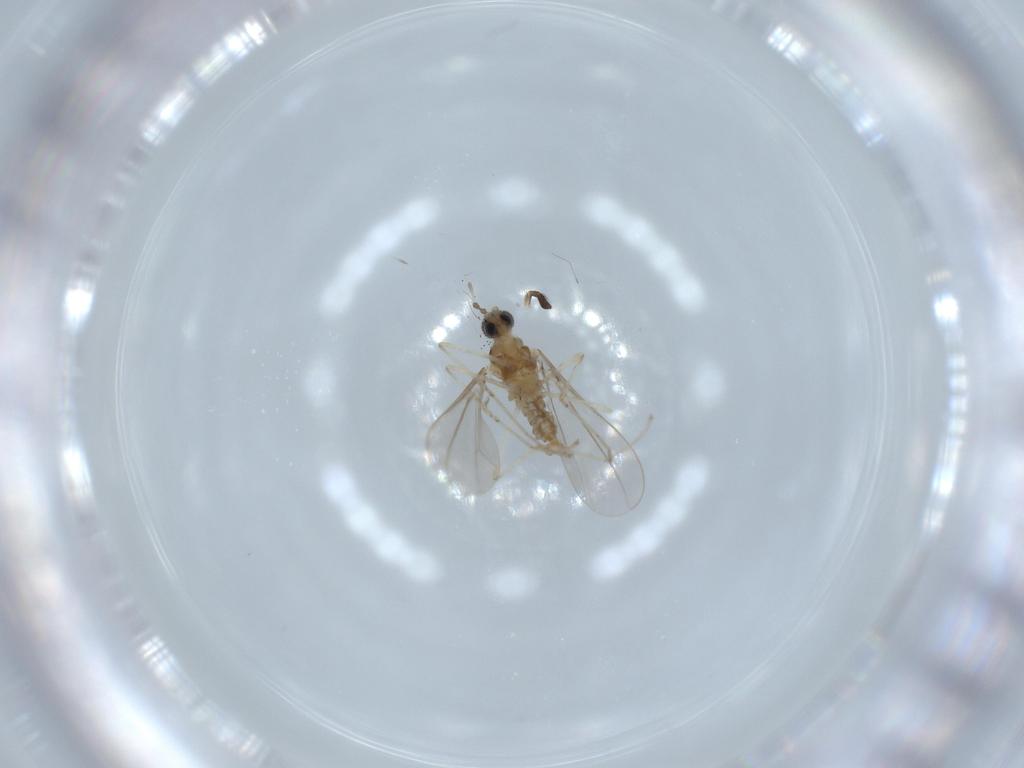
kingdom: Animalia
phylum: Arthropoda
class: Insecta
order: Diptera
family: Cecidomyiidae
